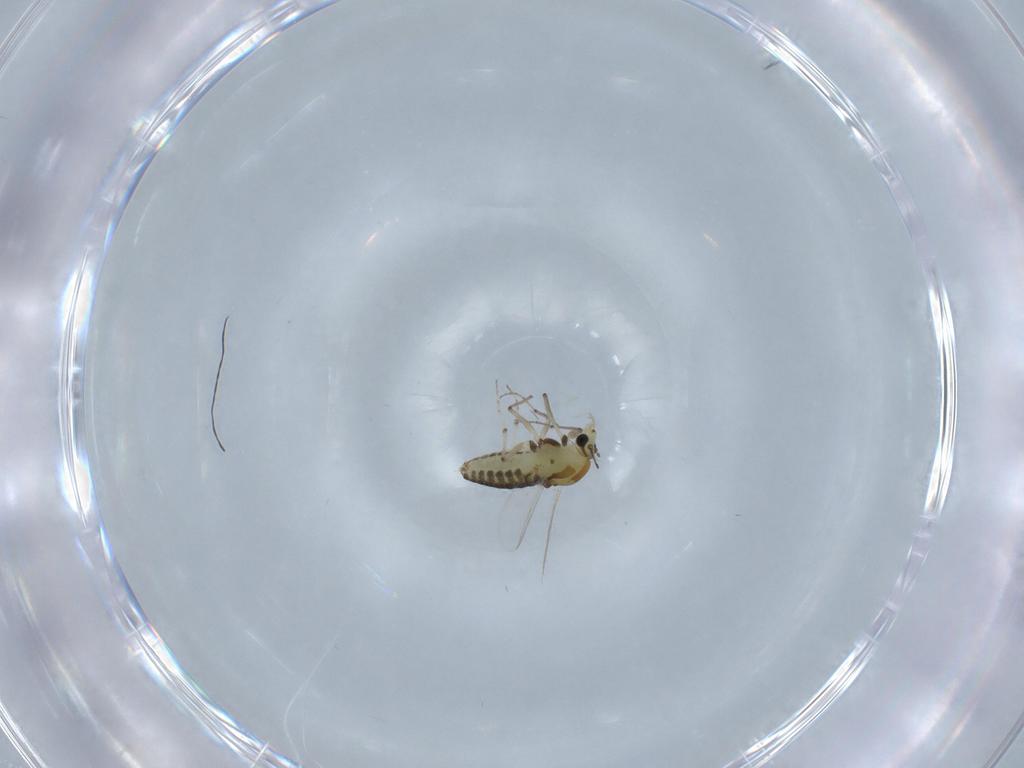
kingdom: Animalia
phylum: Arthropoda
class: Insecta
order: Diptera
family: Chironomidae
